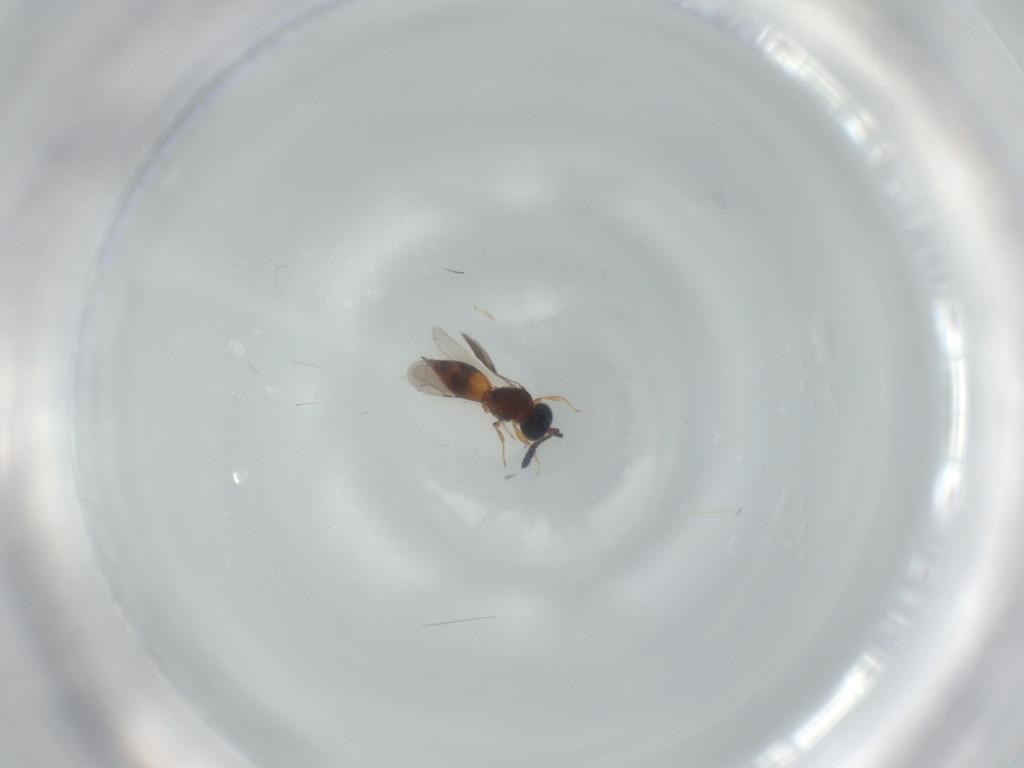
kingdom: Animalia
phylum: Arthropoda
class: Insecta
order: Hymenoptera
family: Ceraphronidae
